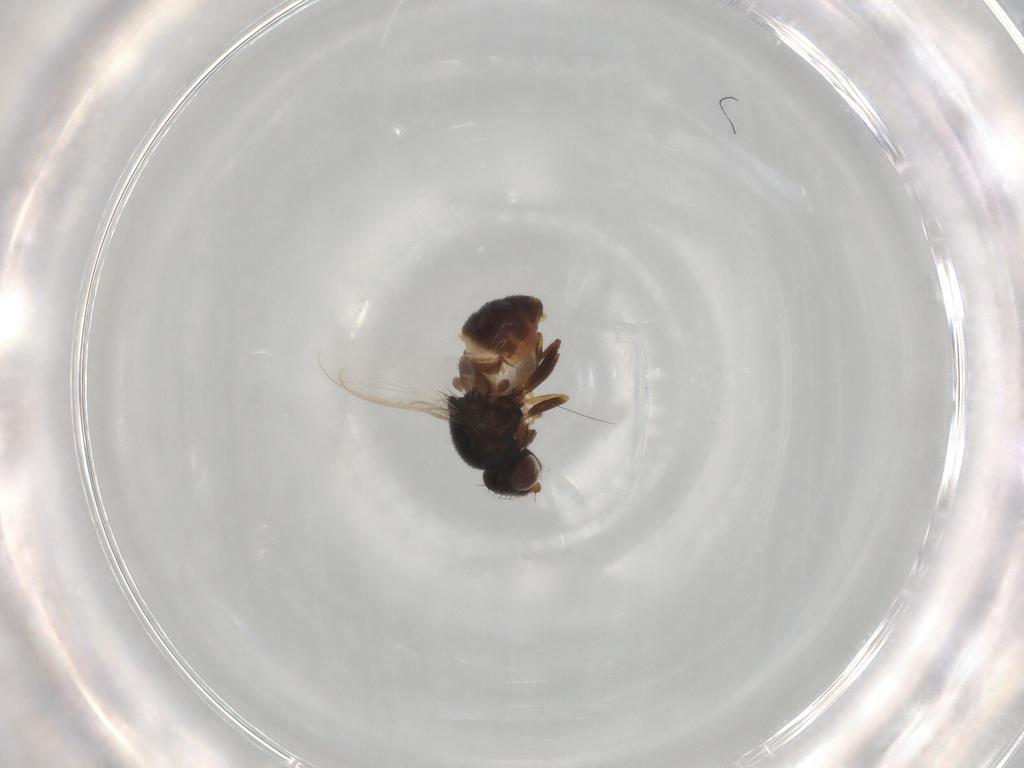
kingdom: Animalia
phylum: Arthropoda
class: Insecta
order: Diptera
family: Chloropidae
